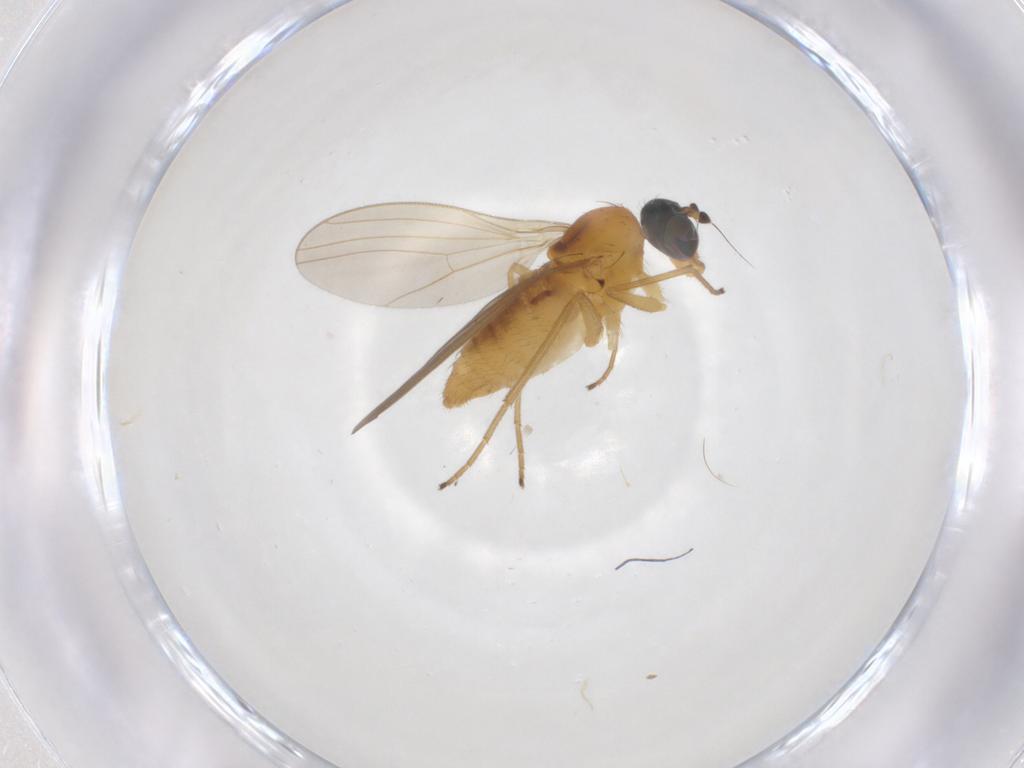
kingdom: Animalia
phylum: Arthropoda
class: Insecta
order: Diptera
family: Dolichopodidae
